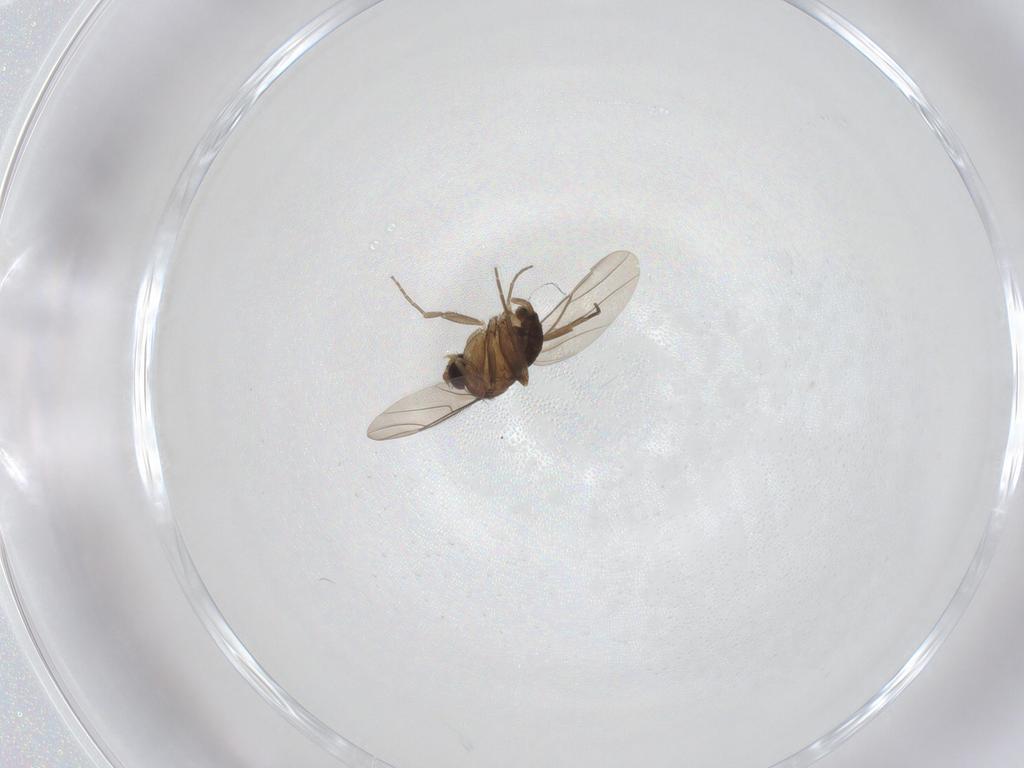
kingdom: Animalia
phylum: Arthropoda
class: Insecta
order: Diptera
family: Chironomidae
